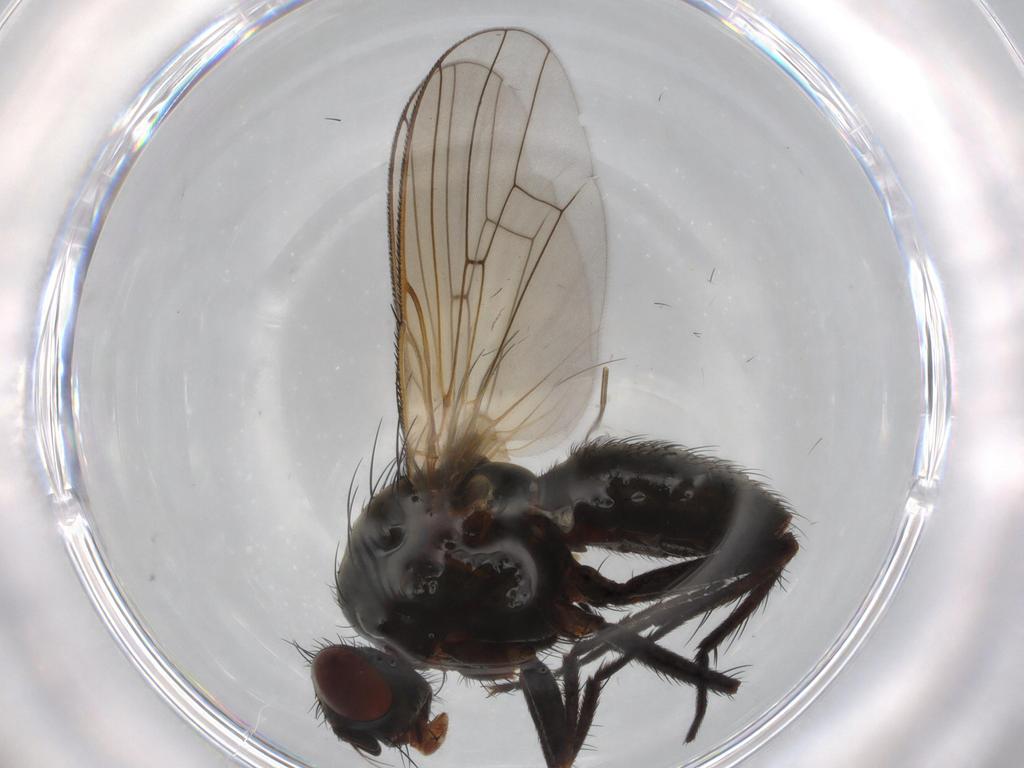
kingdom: Animalia
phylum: Arthropoda
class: Insecta
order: Diptera
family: Anthomyiidae
